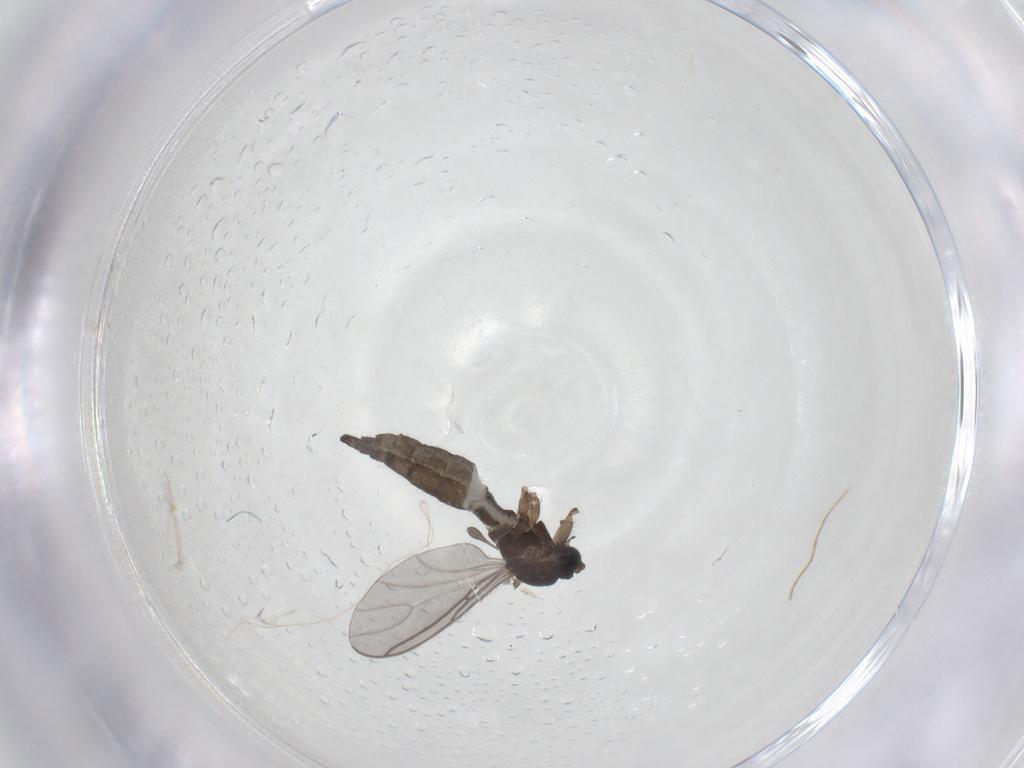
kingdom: Animalia
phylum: Arthropoda
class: Insecta
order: Diptera
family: Sciaridae
